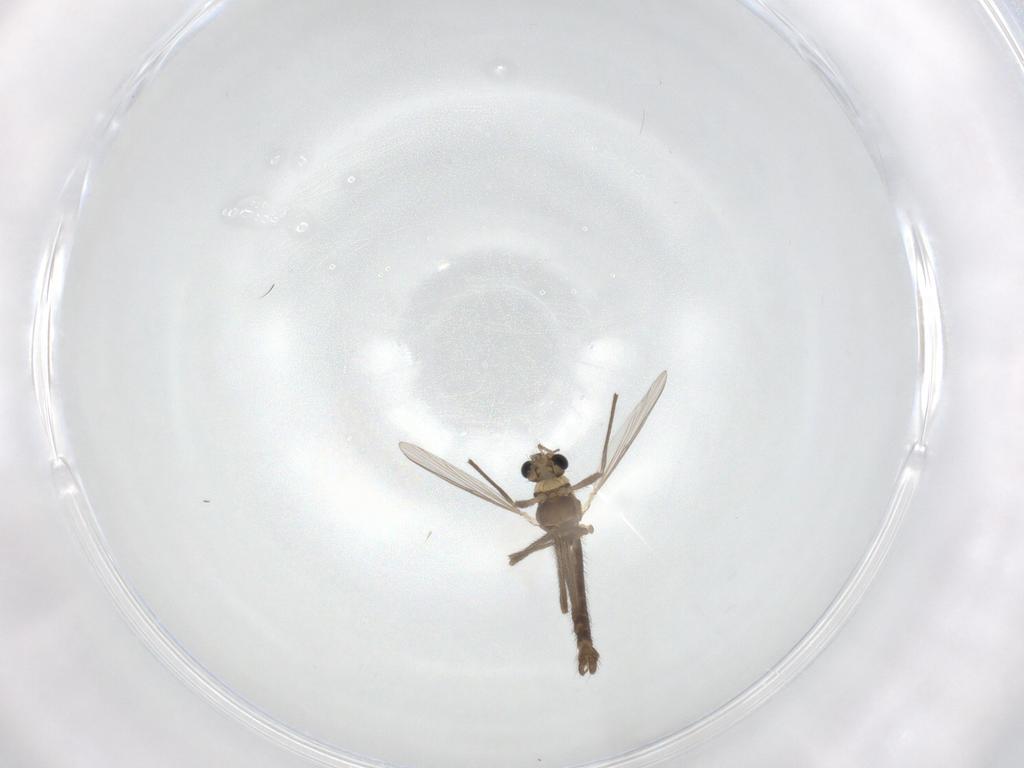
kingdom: Animalia
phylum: Arthropoda
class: Insecta
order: Diptera
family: Chironomidae
